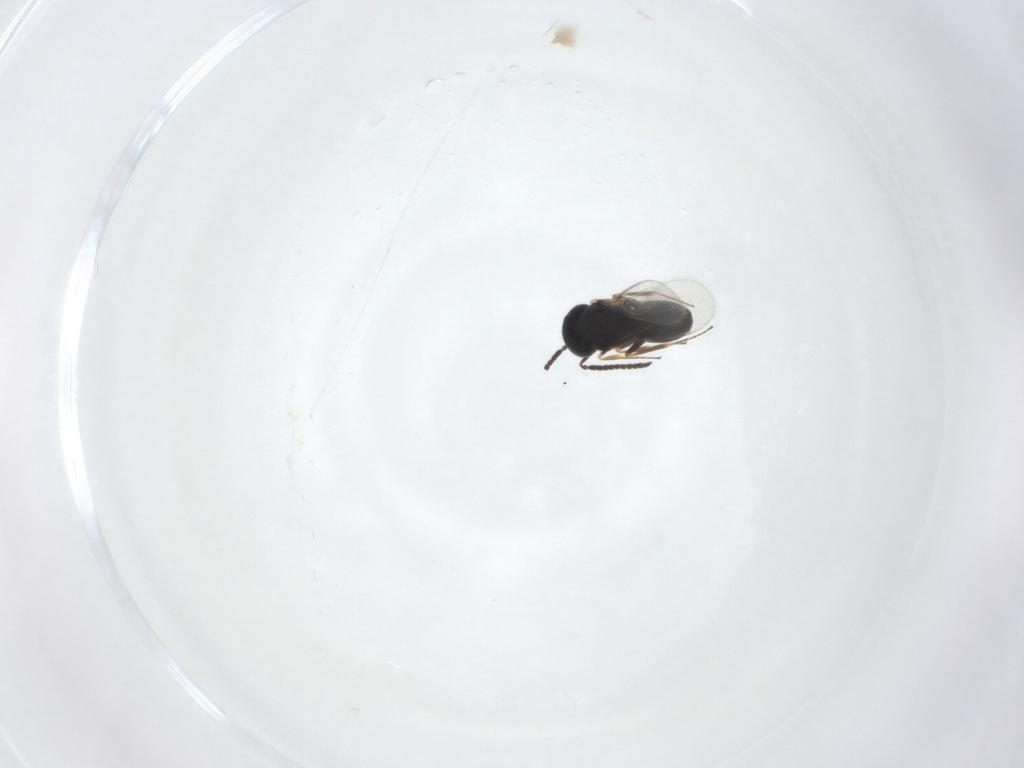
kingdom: Animalia
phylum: Arthropoda
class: Insecta
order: Hymenoptera
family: Scelionidae
